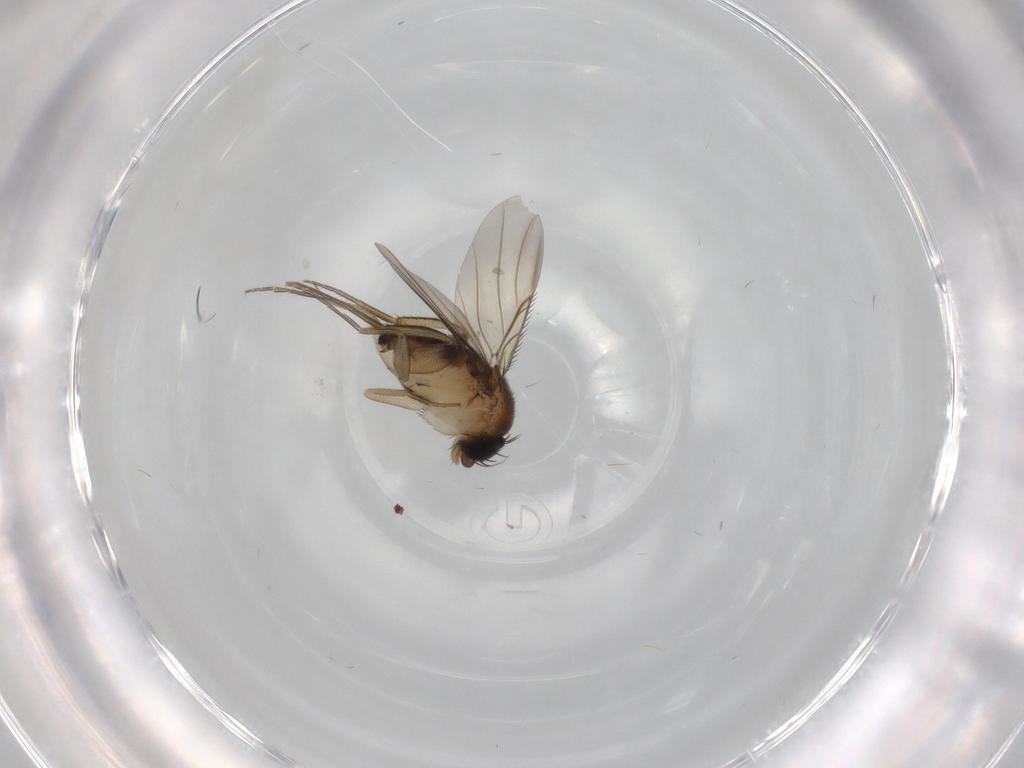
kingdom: Animalia
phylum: Arthropoda
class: Insecta
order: Diptera
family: Phoridae
